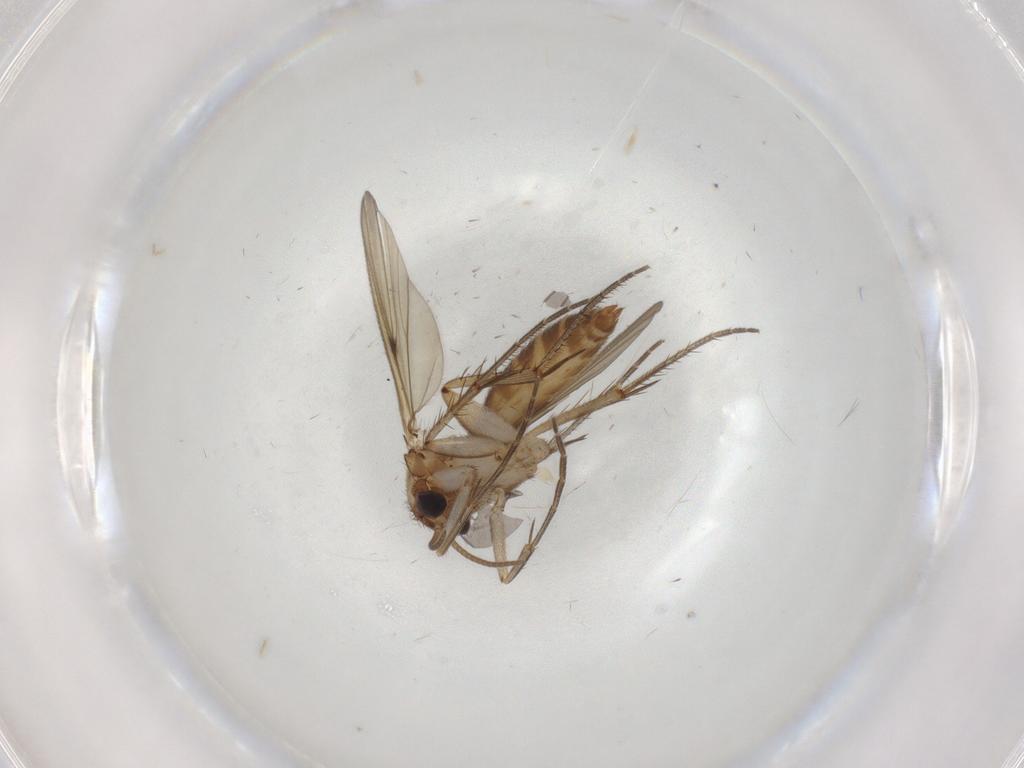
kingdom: Animalia
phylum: Arthropoda
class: Insecta
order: Diptera
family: Sciaridae
